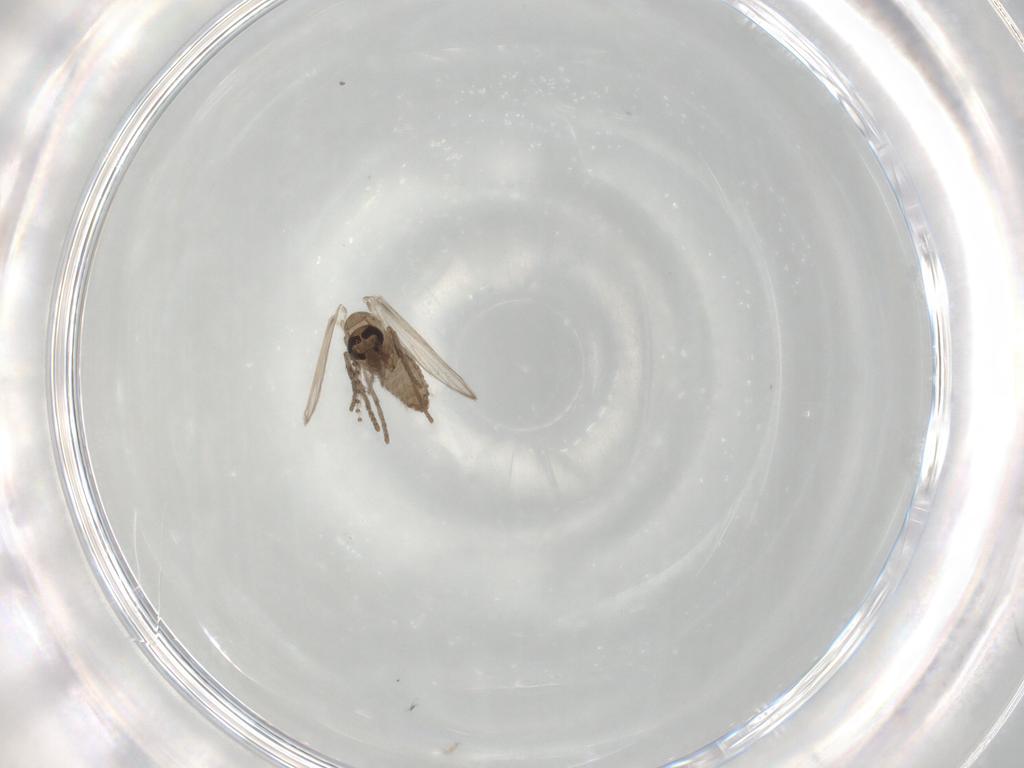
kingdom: Animalia
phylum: Arthropoda
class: Insecta
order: Diptera
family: Psychodidae
